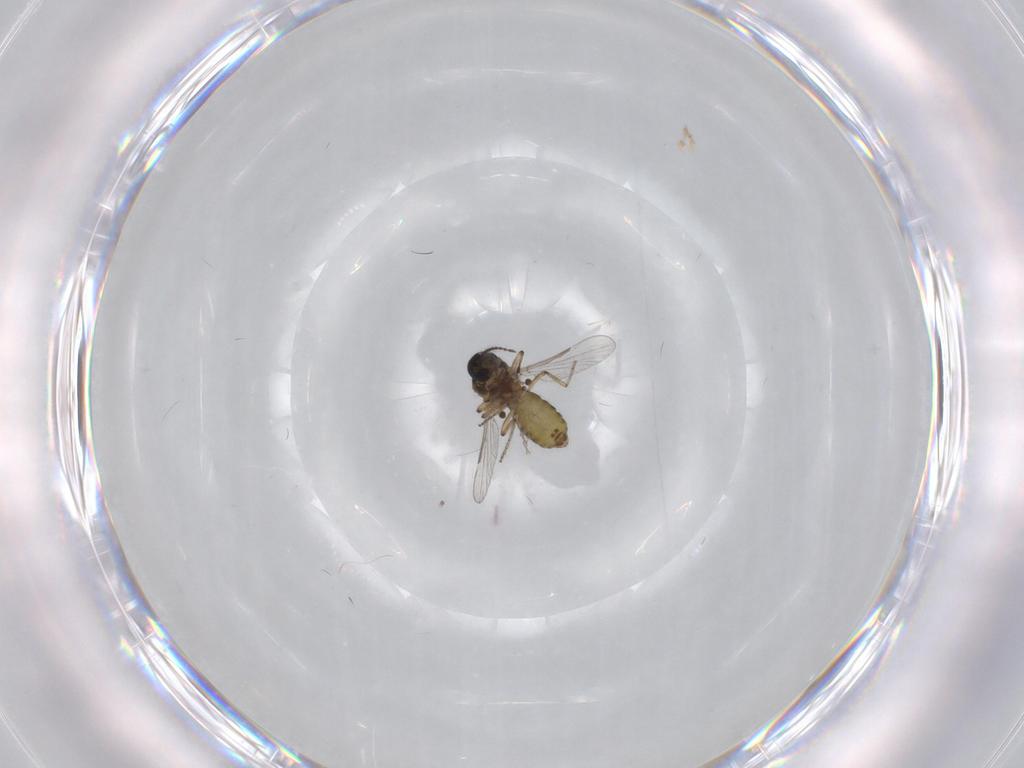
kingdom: Animalia
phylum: Arthropoda
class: Insecta
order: Diptera
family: Ceratopogonidae
